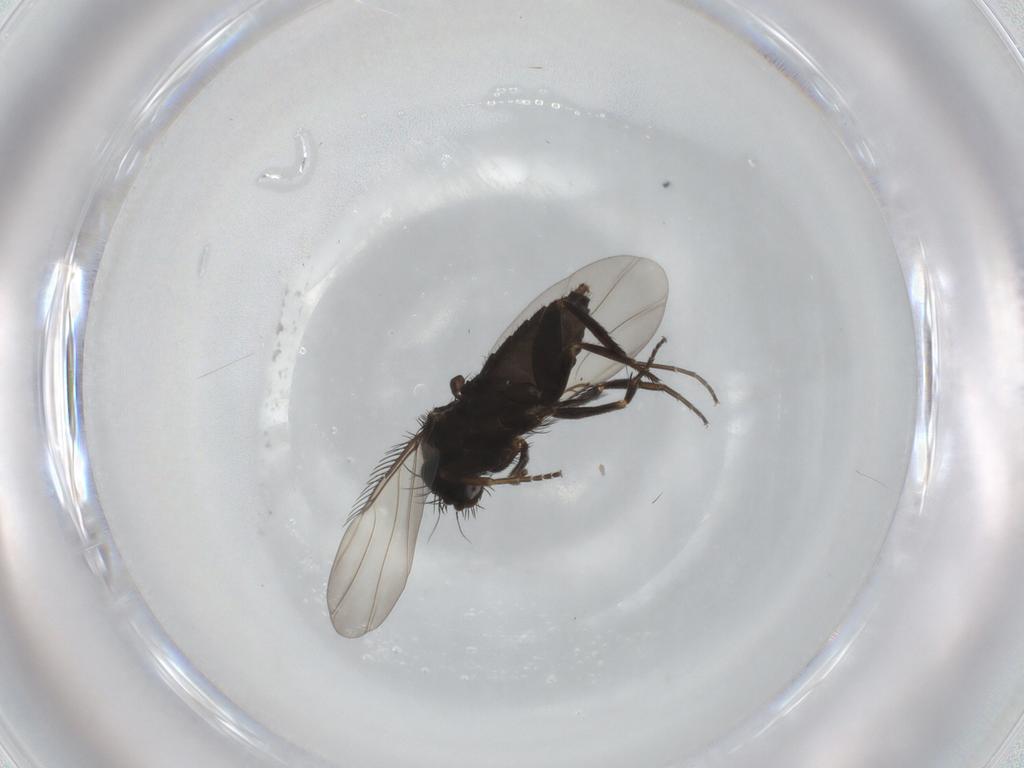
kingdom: Animalia
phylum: Arthropoda
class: Insecta
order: Diptera
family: Phoridae
